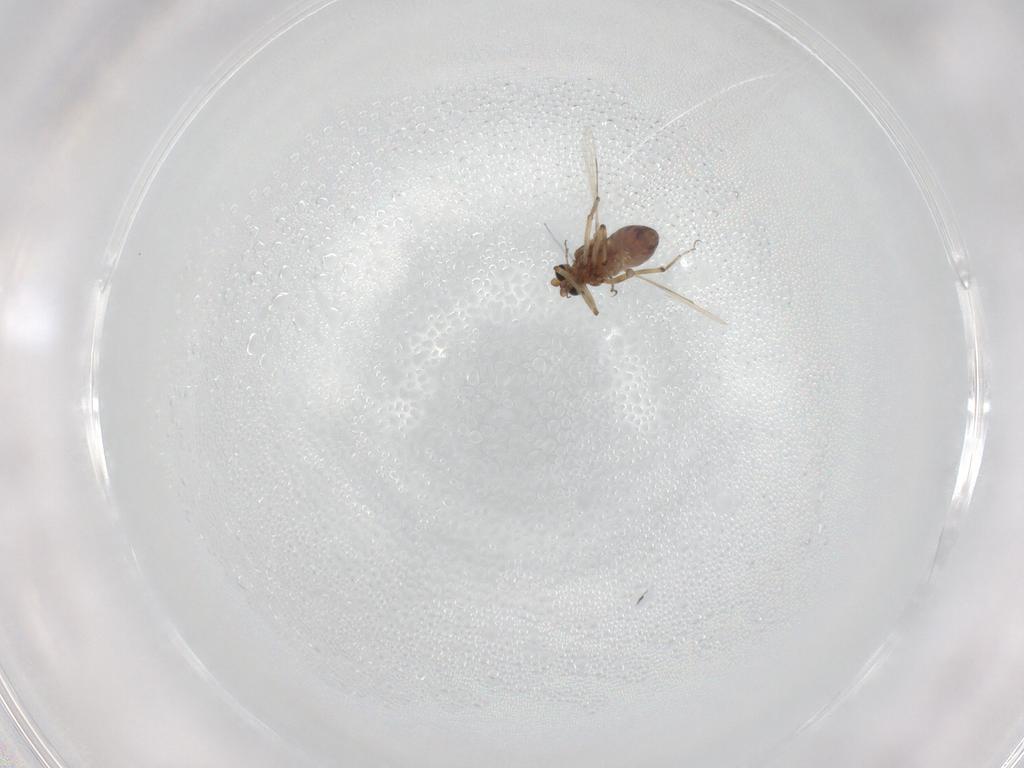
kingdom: Animalia
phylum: Arthropoda
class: Insecta
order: Diptera
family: Ceratopogonidae
